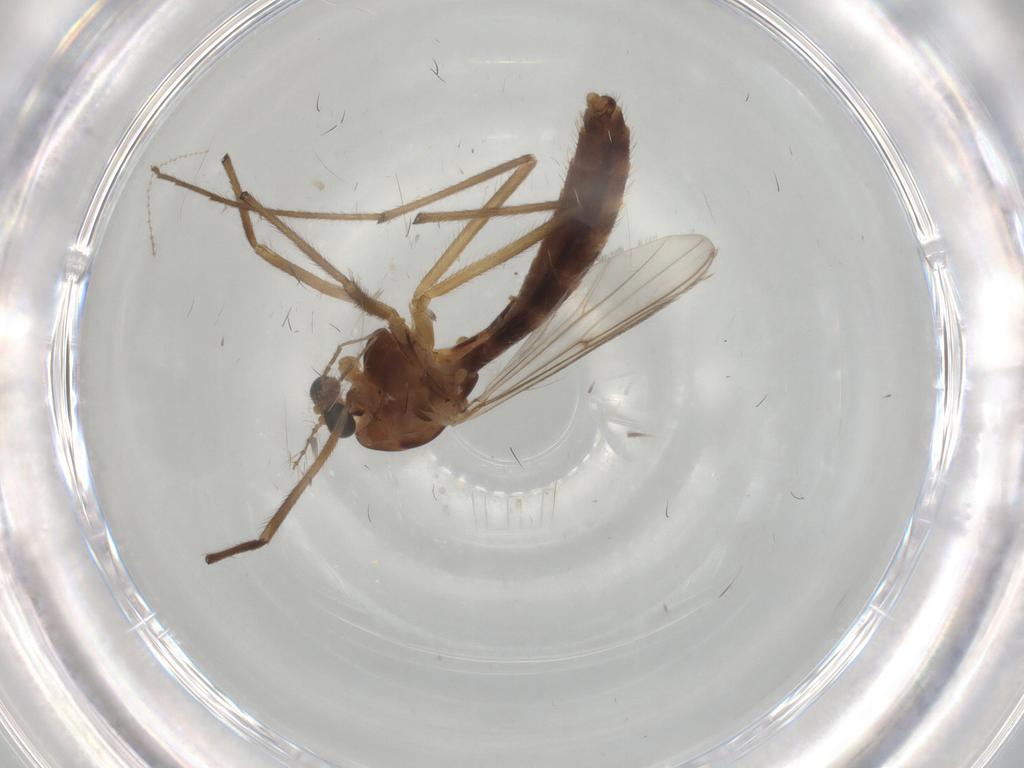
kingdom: Animalia
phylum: Arthropoda
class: Insecta
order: Diptera
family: Chironomidae
